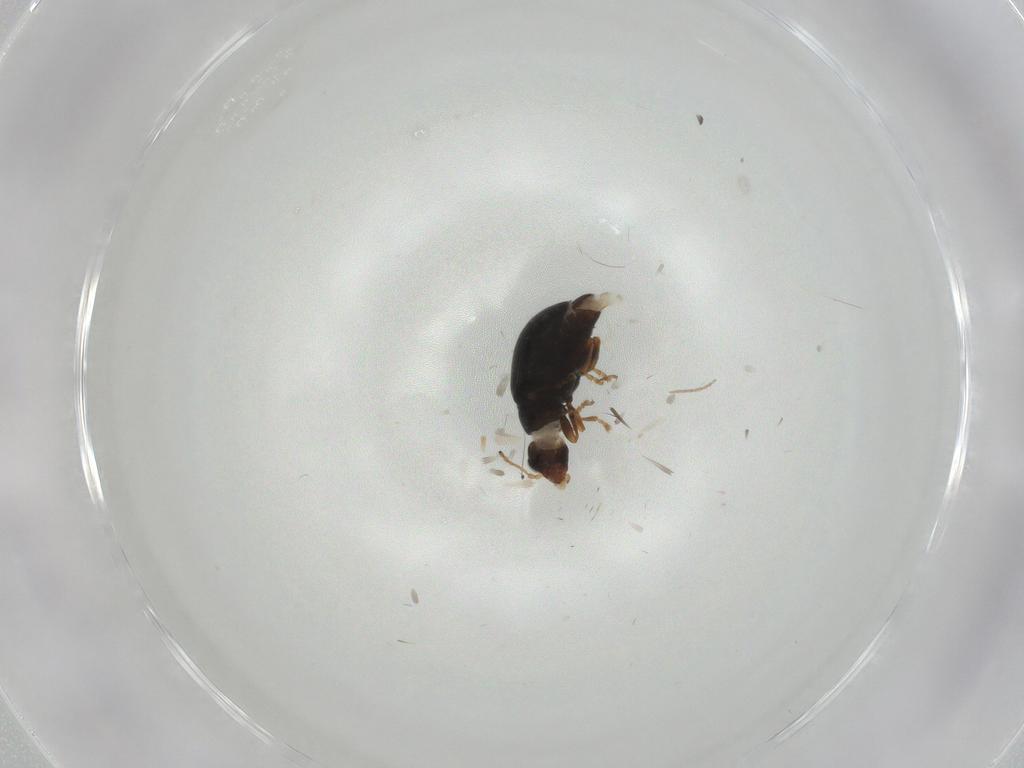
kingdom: Animalia
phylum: Arthropoda
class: Insecta
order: Coleoptera
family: Chrysomelidae
